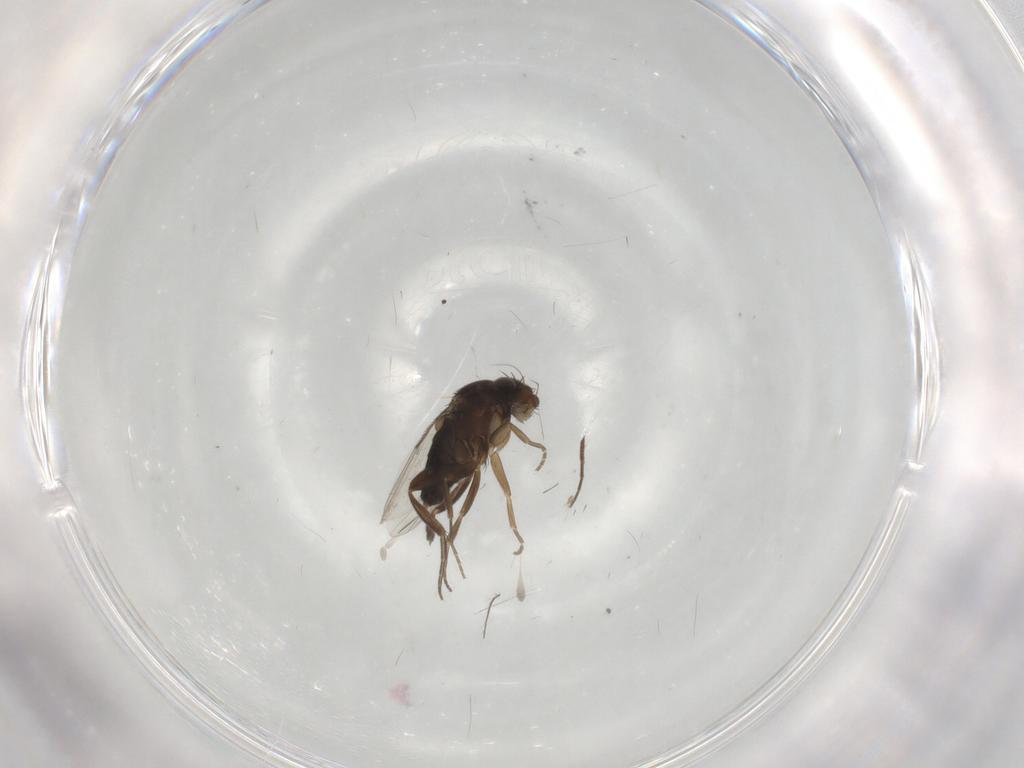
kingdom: Animalia
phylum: Arthropoda
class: Insecta
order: Diptera
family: Phoridae
